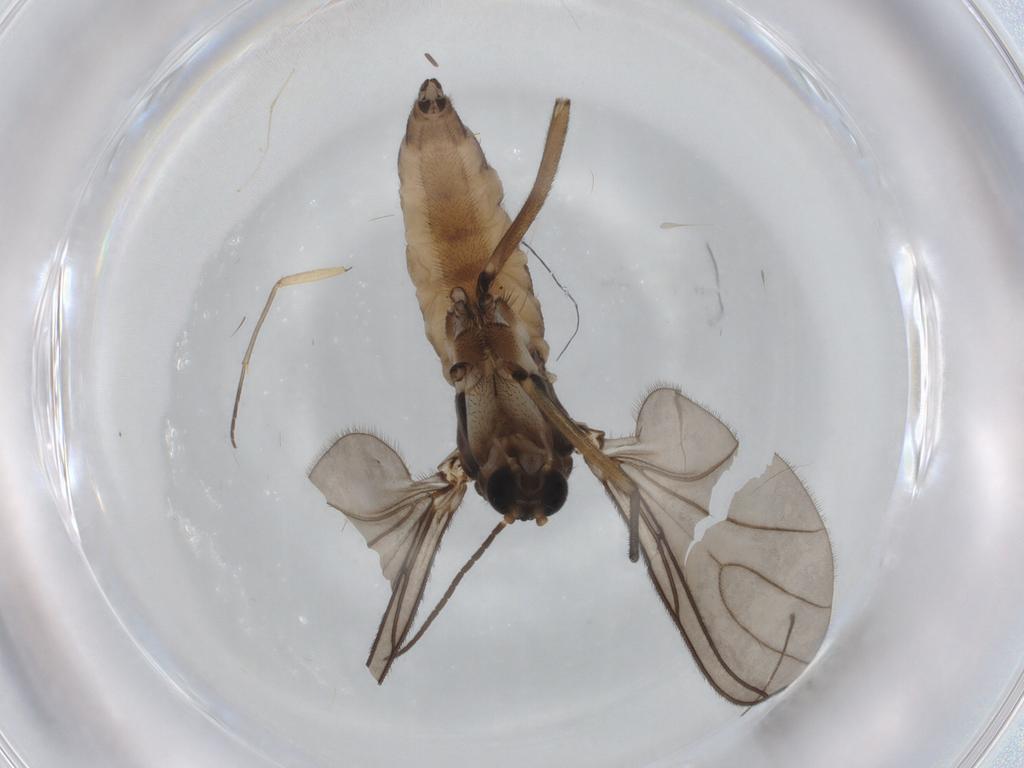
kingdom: Animalia
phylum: Arthropoda
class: Insecta
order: Diptera
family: Sciaridae
